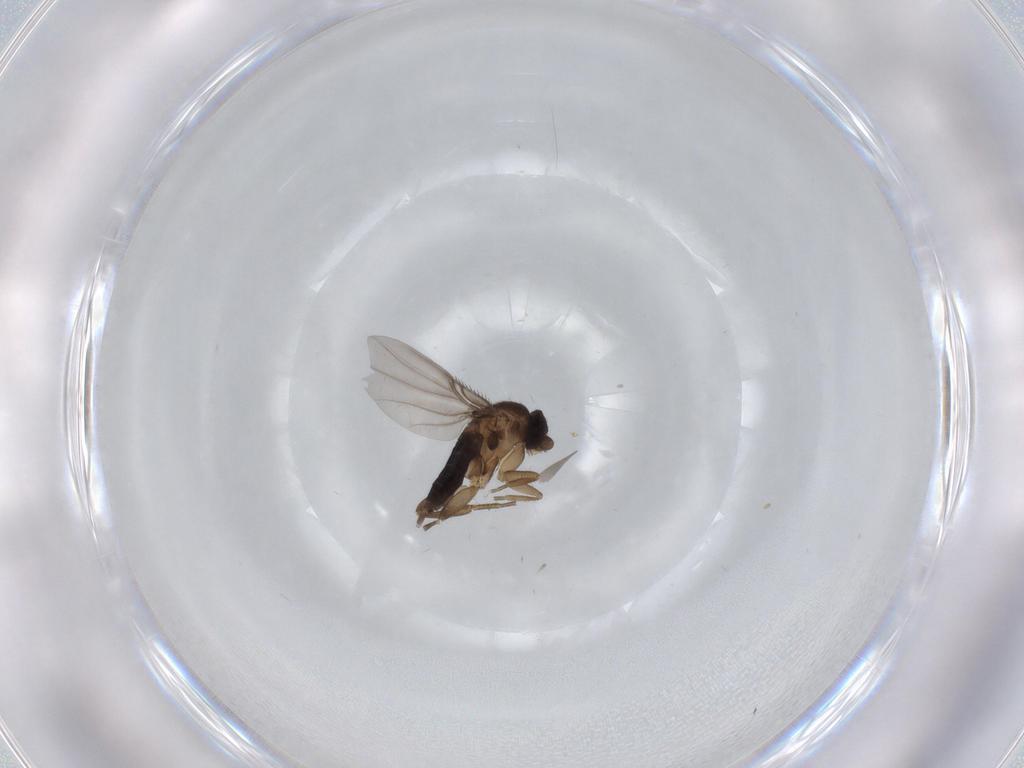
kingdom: Animalia
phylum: Arthropoda
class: Insecta
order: Diptera
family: Phoridae
